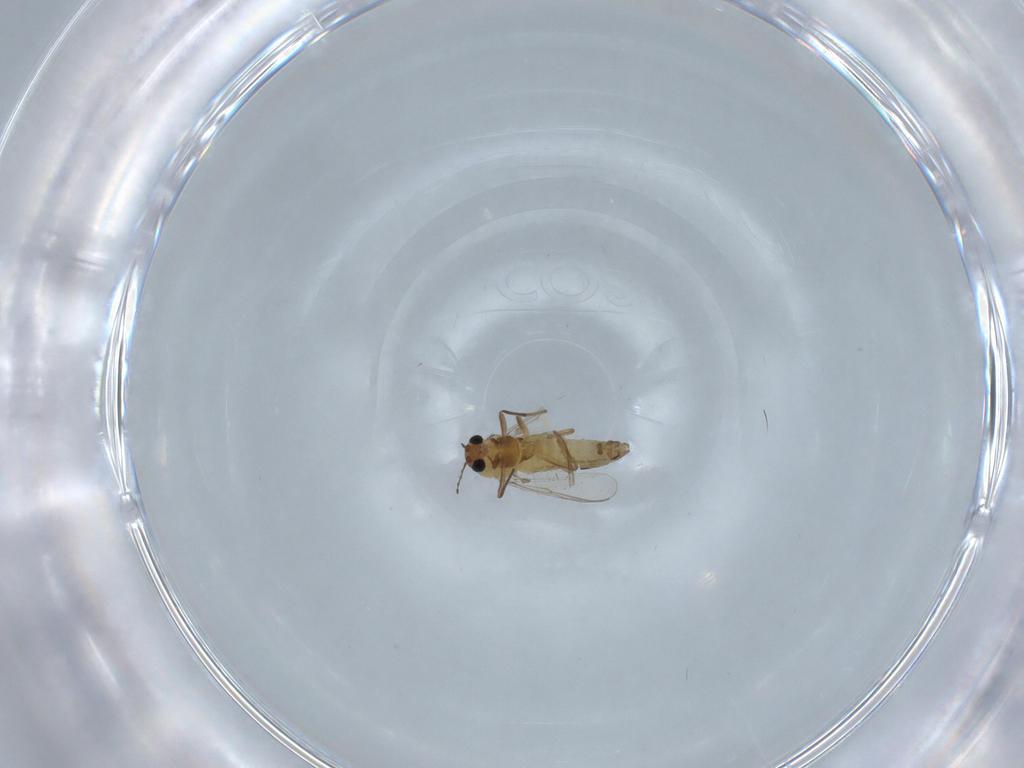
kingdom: Animalia
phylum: Arthropoda
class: Insecta
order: Diptera
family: Chironomidae
